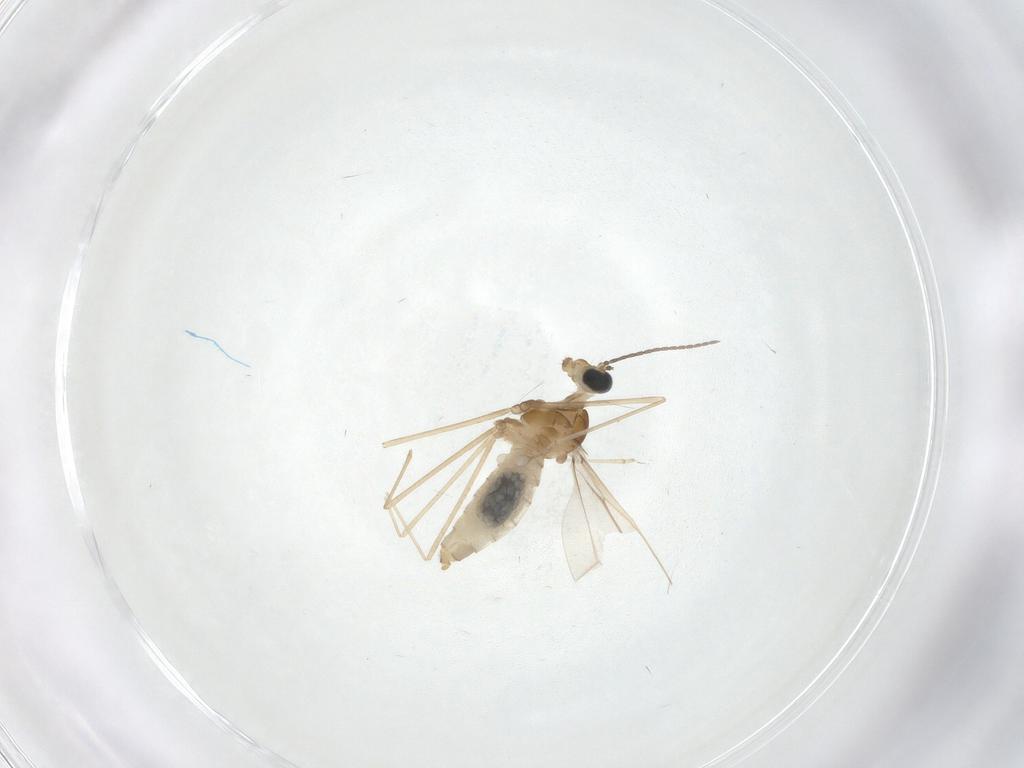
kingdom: Animalia
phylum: Arthropoda
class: Insecta
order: Diptera
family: Cecidomyiidae
